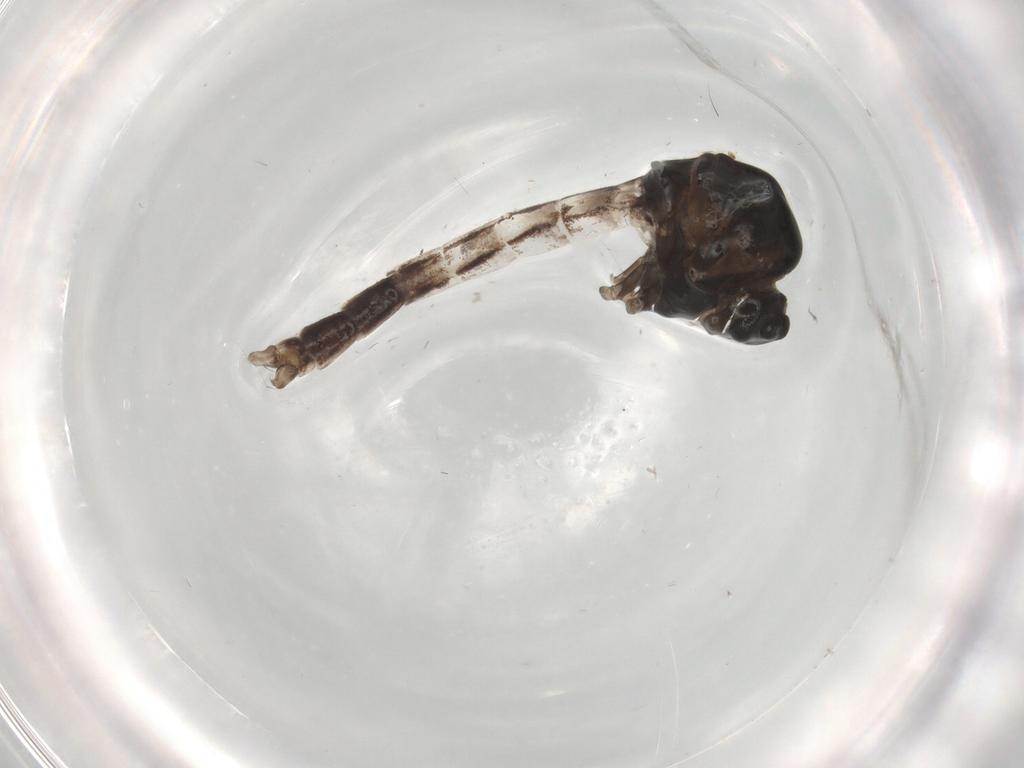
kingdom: Animalia
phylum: Arthropoda
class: Insecta
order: Diptera
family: Chironomidae
